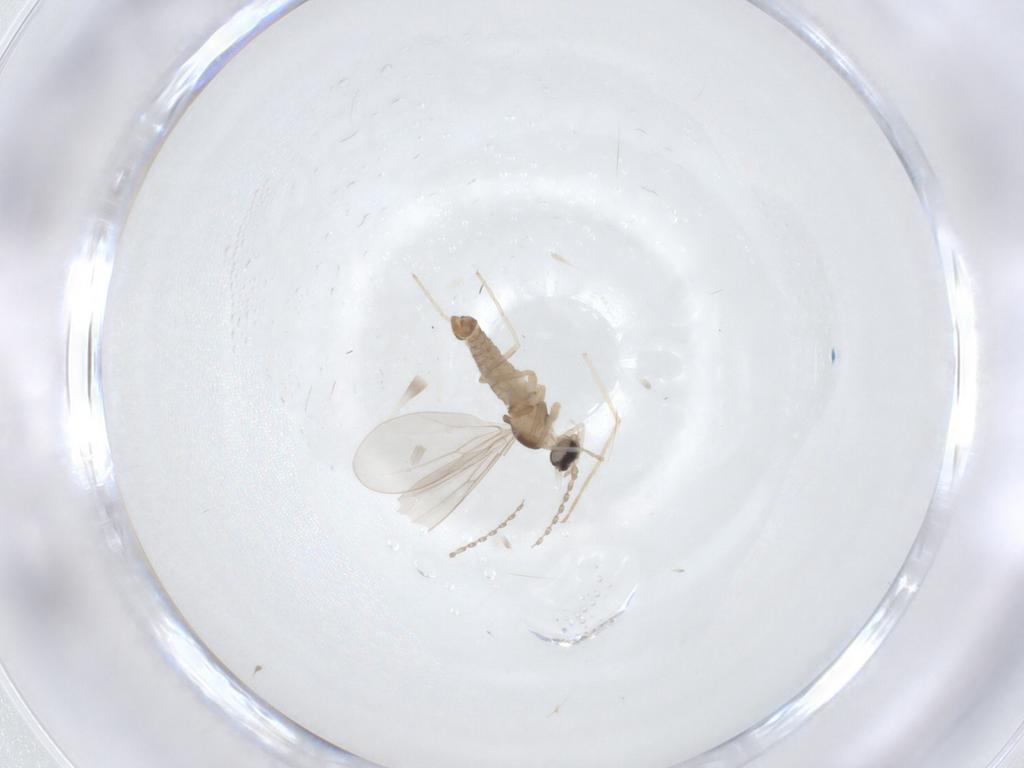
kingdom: Animalia
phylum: Arthropoda
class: Insecta
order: Diptera
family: Cecidomyiidae
